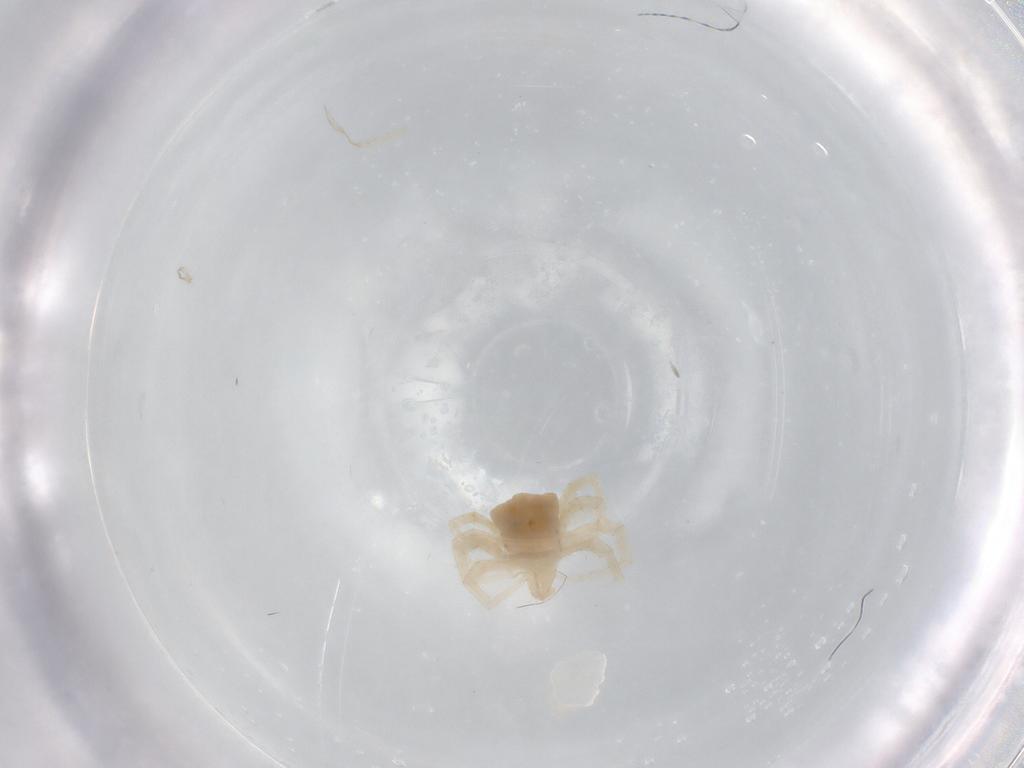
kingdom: Animalia
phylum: Arthropoda
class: Arachnida
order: Trombidiformes
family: Anystidae
